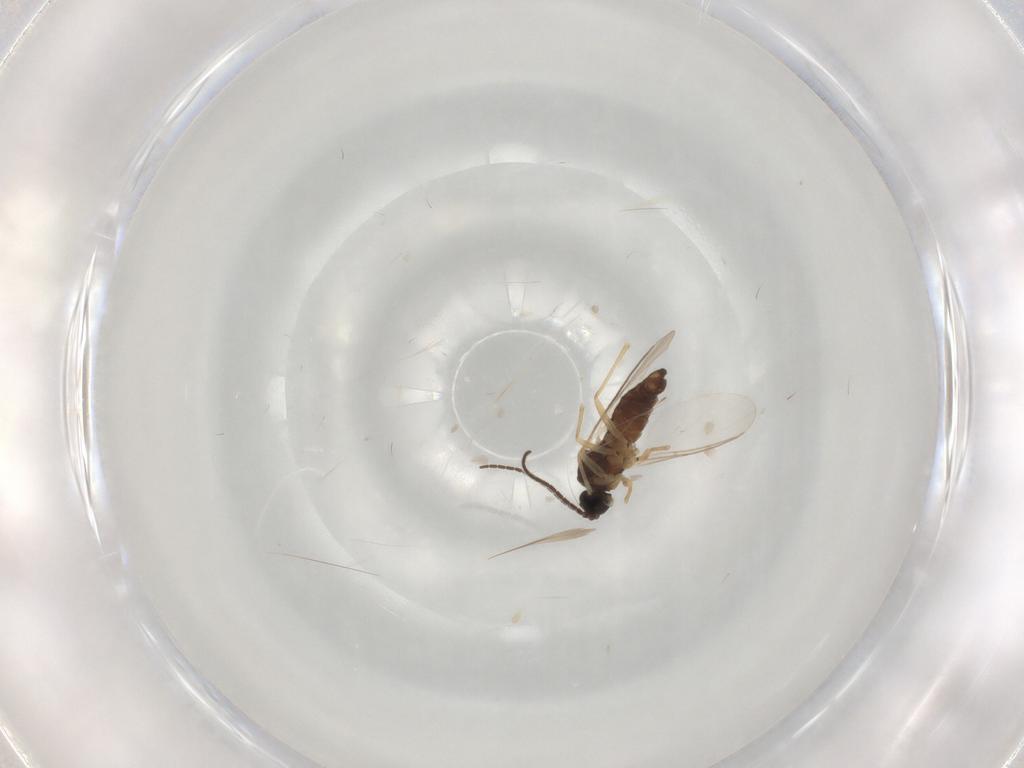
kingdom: Animalia
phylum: Arthropoda
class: Insecta
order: Diptera
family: Sciaridae
